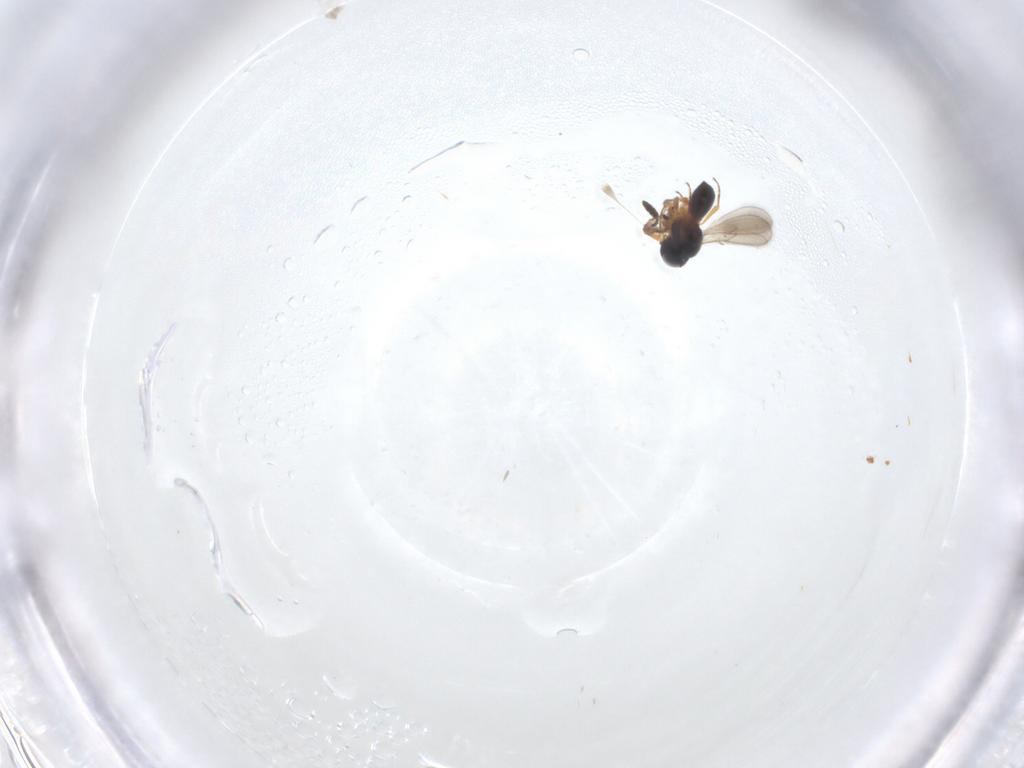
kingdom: Animalia
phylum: Arthropoda
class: Insecta
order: Hymenoptera
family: Scelionidae
